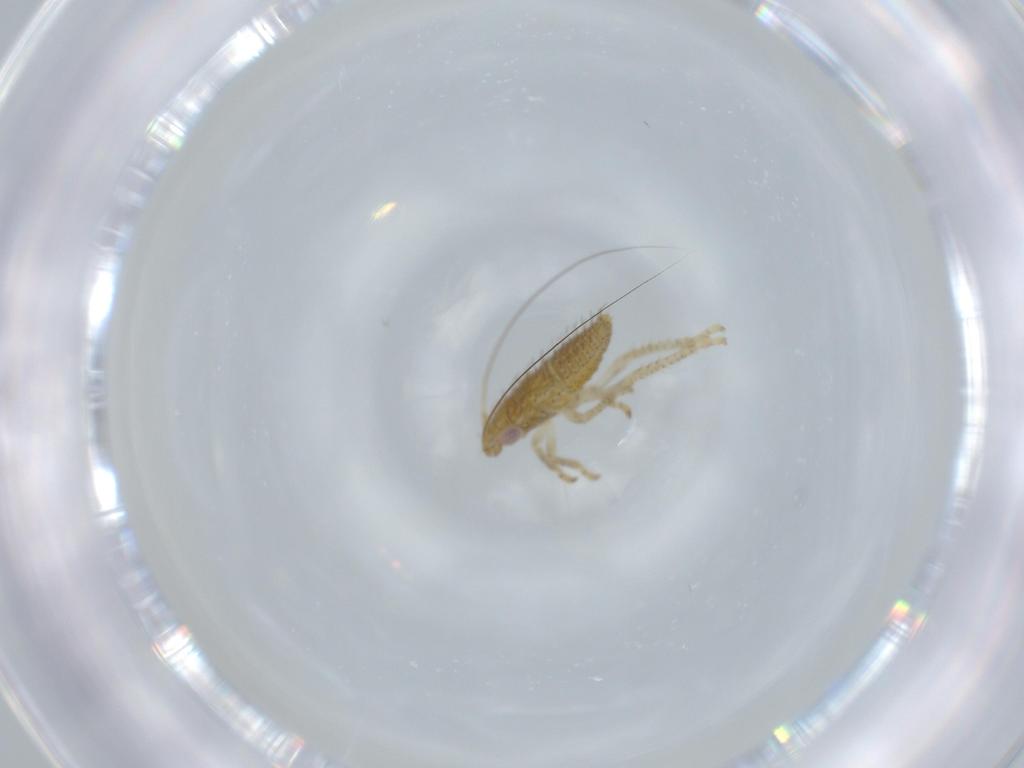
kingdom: Animalia
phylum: Arthropoda
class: Insecta
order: Hemiptera
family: Cicadellidae
